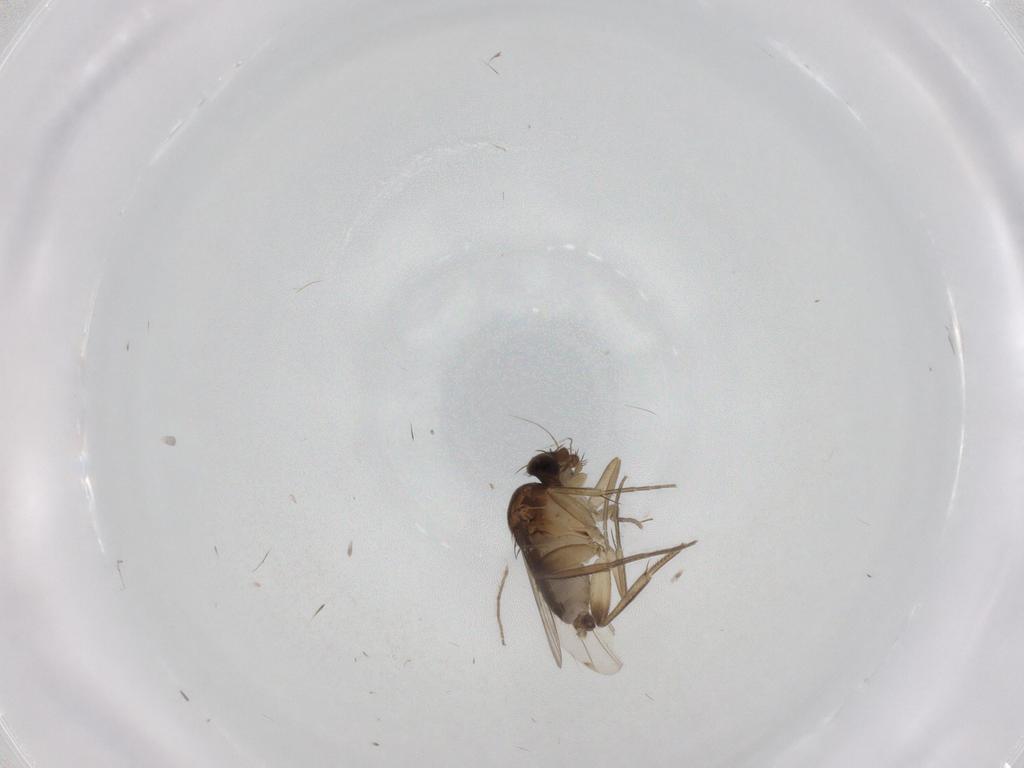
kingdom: Animalia
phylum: Arthropoda
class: Insecta
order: Diptera
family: Phoridae
